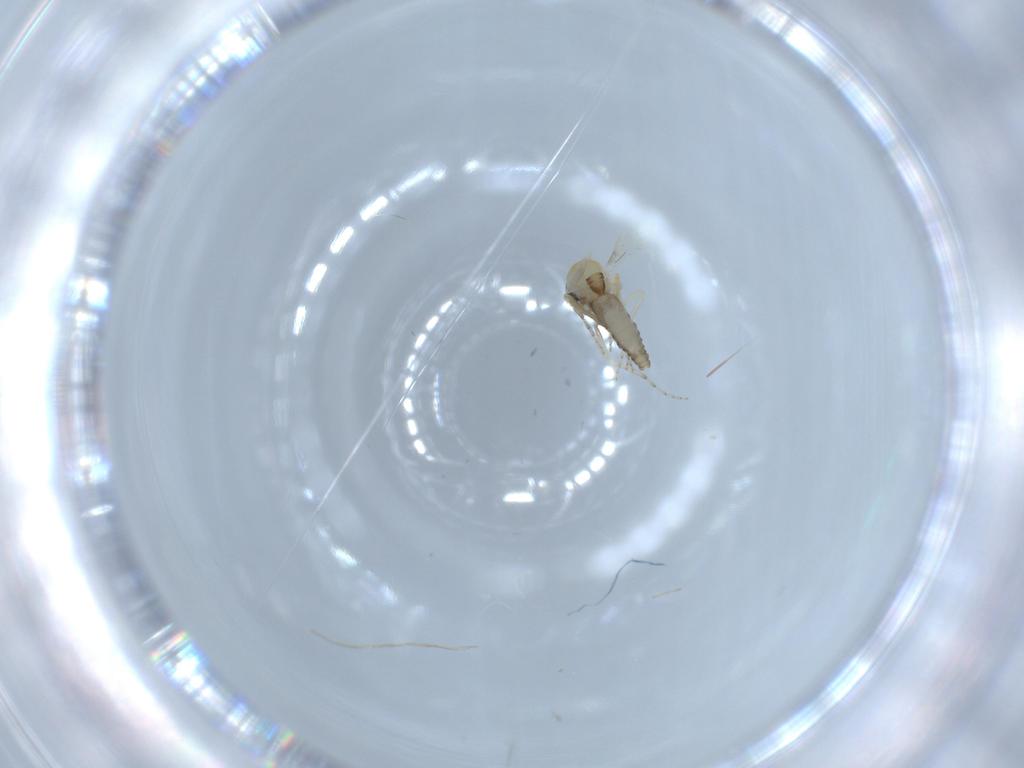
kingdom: Animalia
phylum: Arthropoda
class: Insecta
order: Diptera
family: Ceratopogonidae
